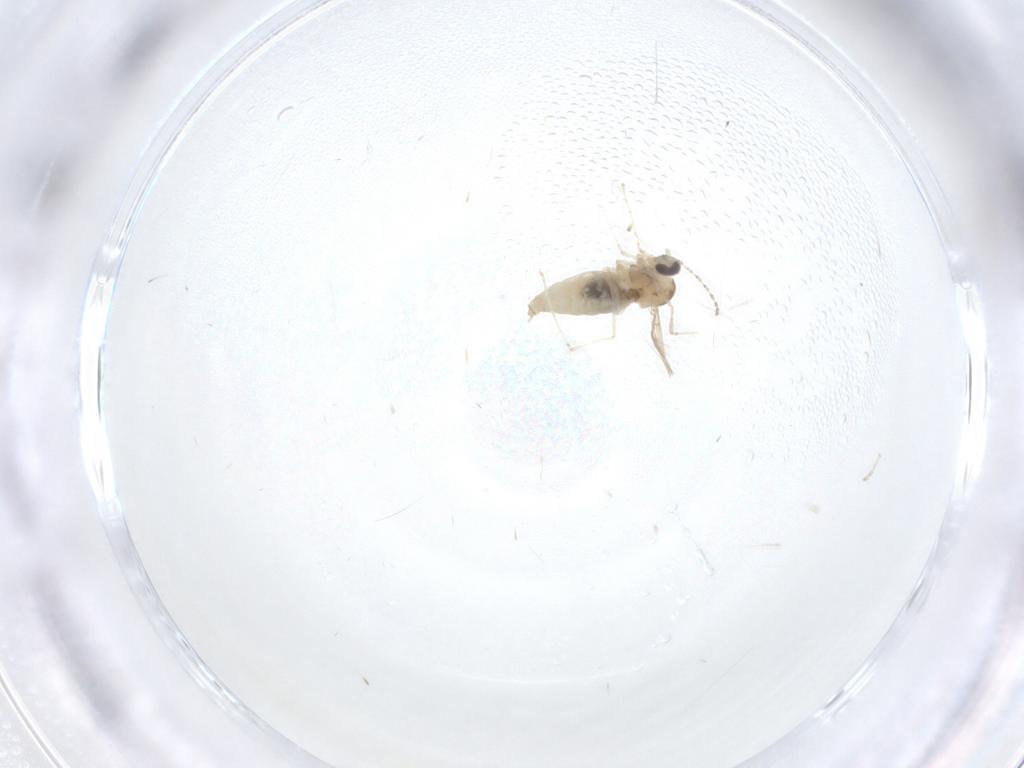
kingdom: Animalia
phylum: Arthropoda
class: Insecta
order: Diptera
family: Cecidomyiidae
